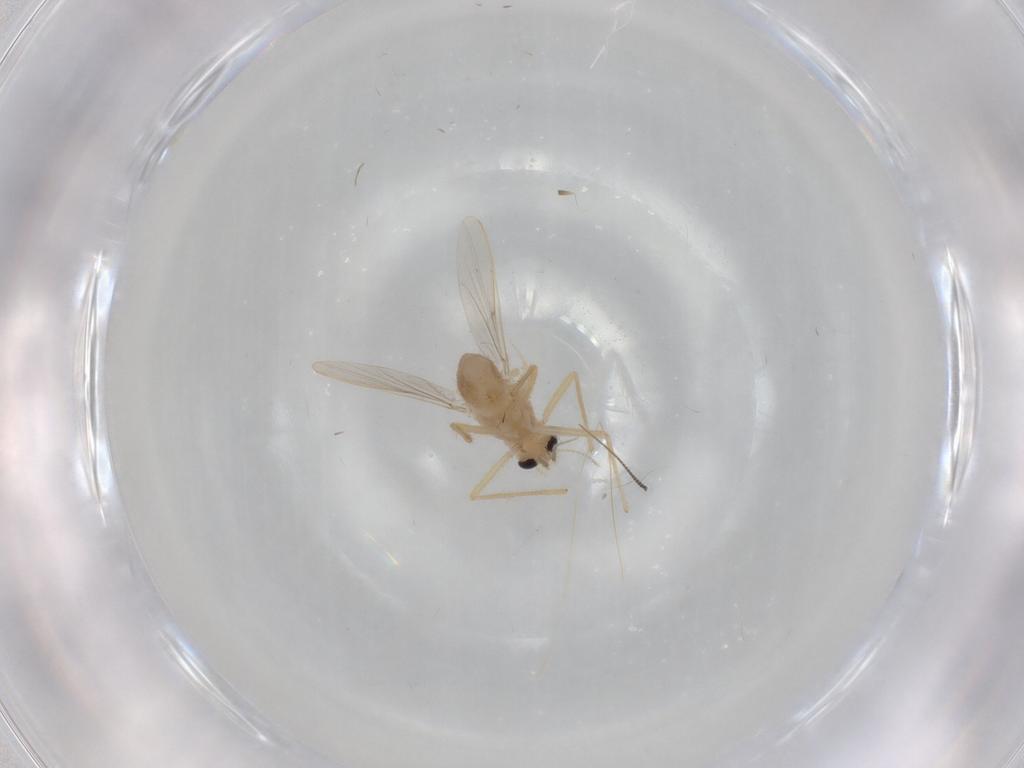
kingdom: Animalia
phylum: Arthropoda
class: Insecta
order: Diptera
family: Chironomidae
